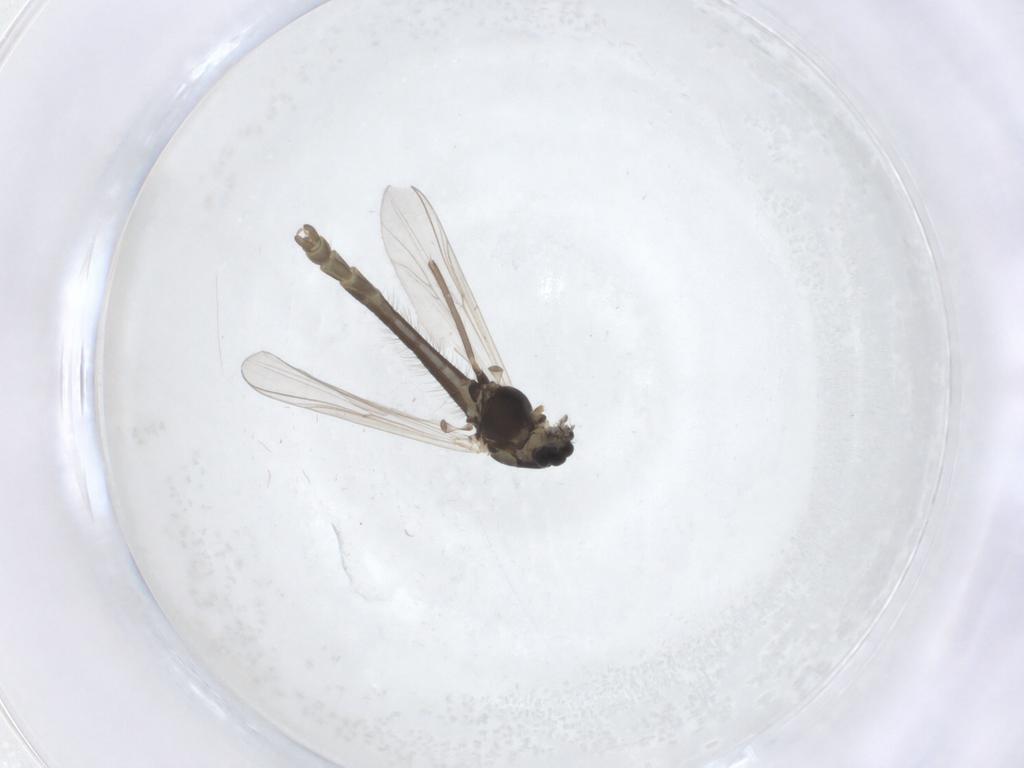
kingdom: Animalia
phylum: Arthropoda
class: Insecta
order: Diptera
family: Chironomidae
